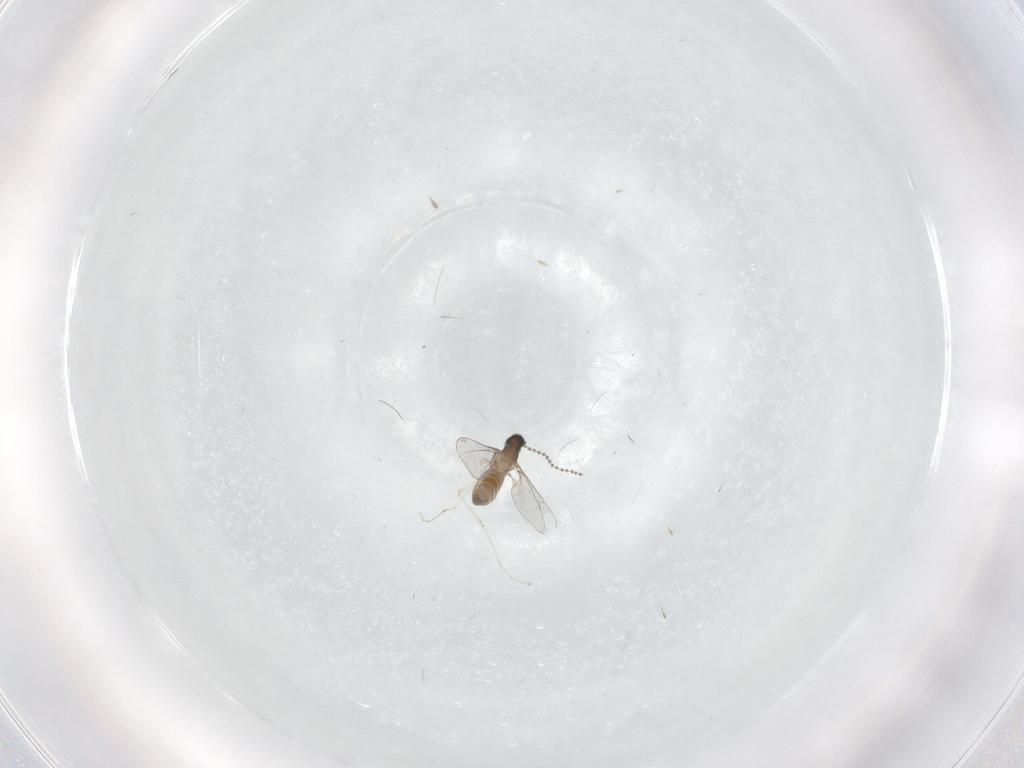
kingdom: Animalia
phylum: Arthropoda
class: Insecta
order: Diptera
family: Cecidomyiidae
